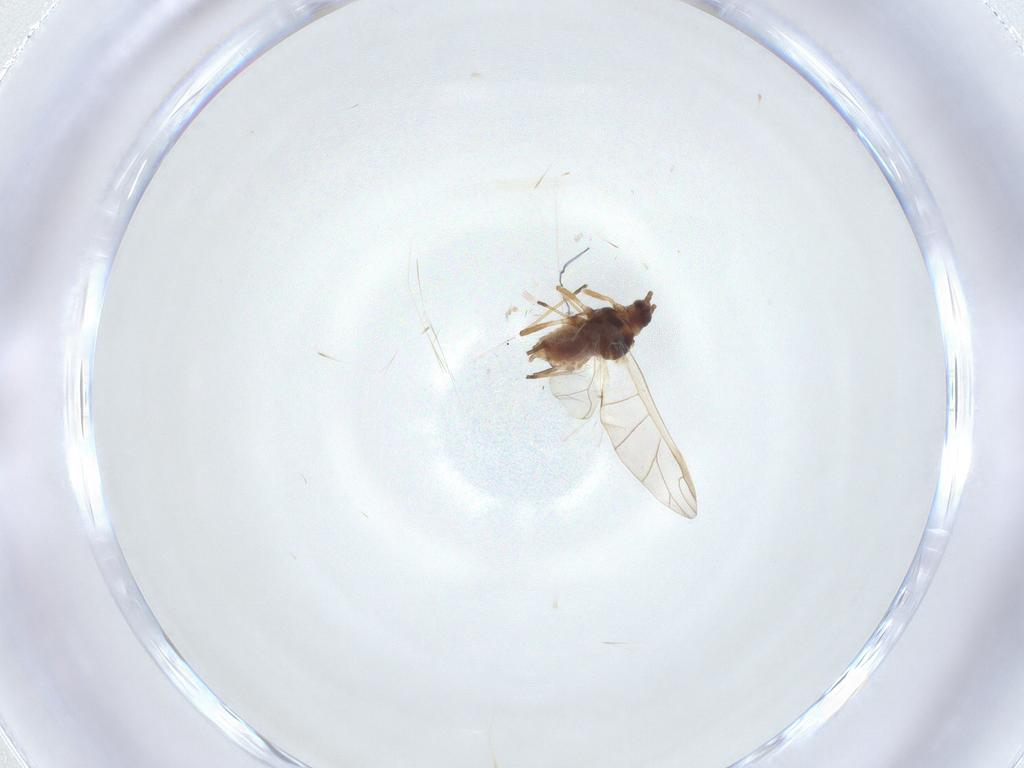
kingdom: Animalia
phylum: Arthropoda
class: Insecta
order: Hemiptera
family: Aphididae
